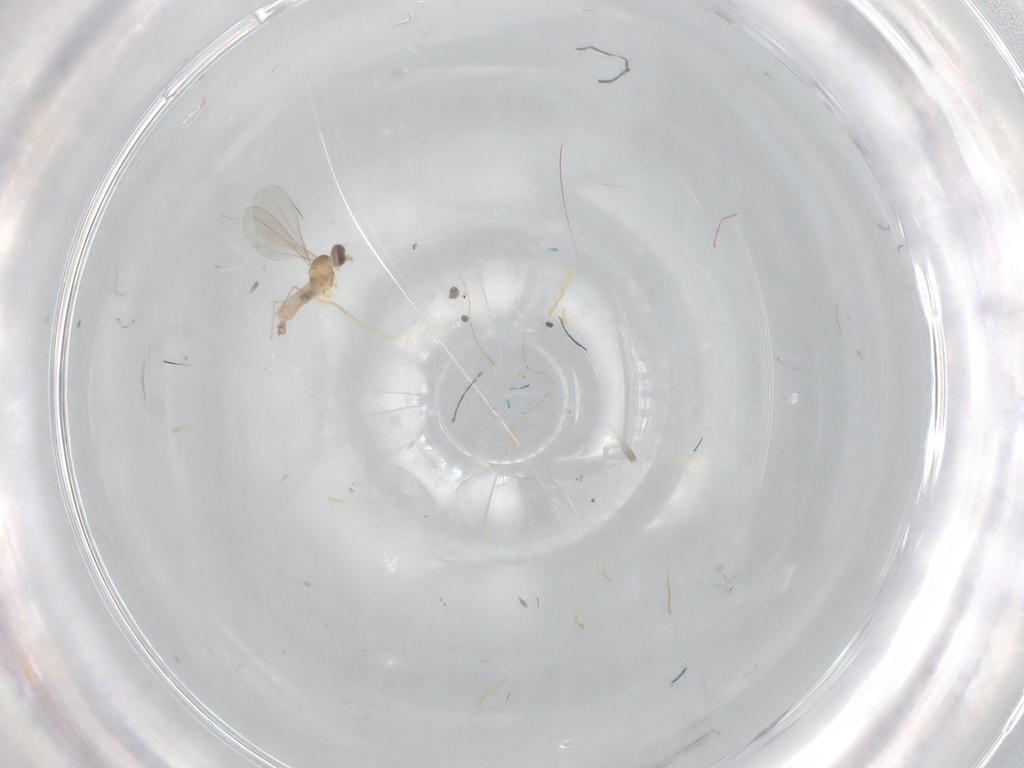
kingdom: Animalia
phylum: Arthropoda
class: Insecta
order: Diptera
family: Cecidomyiidae
